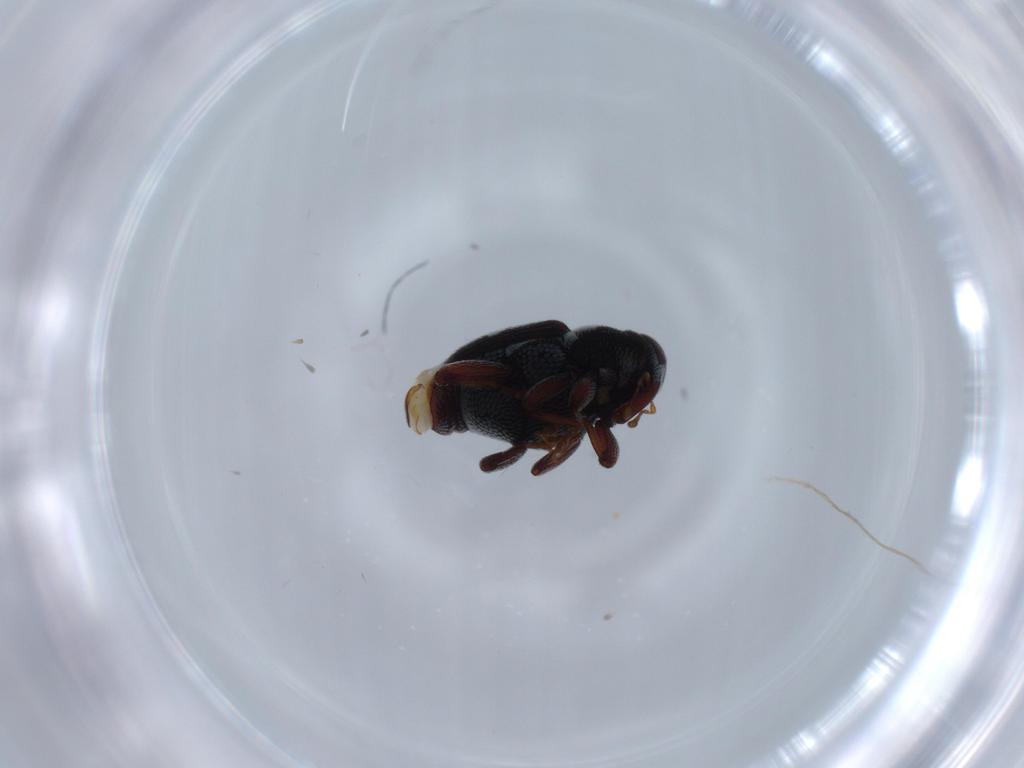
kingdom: Animalia
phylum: Arthropoda
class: Insecta
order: Coleoptera
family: Curculionidae
